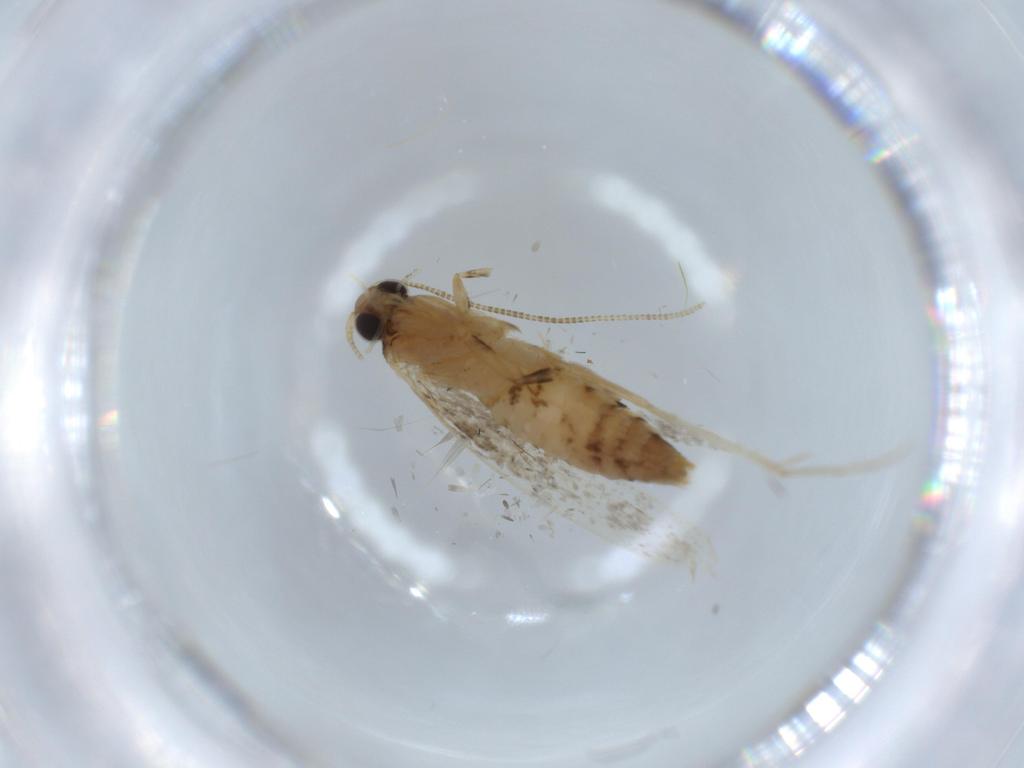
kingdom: Animalia
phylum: Arthropoda
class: Insecta
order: Lepidoptera
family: Tineidae
